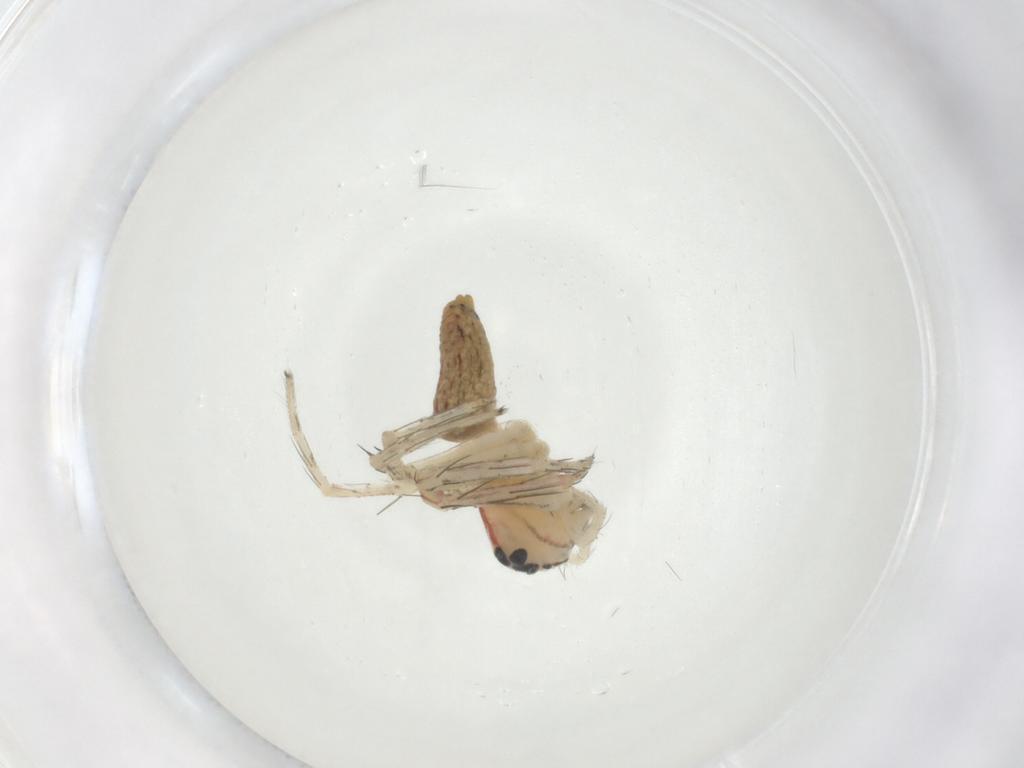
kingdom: Animalia
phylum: Arthropoda
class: Arachnida
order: Araneae
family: Oxyopidae
